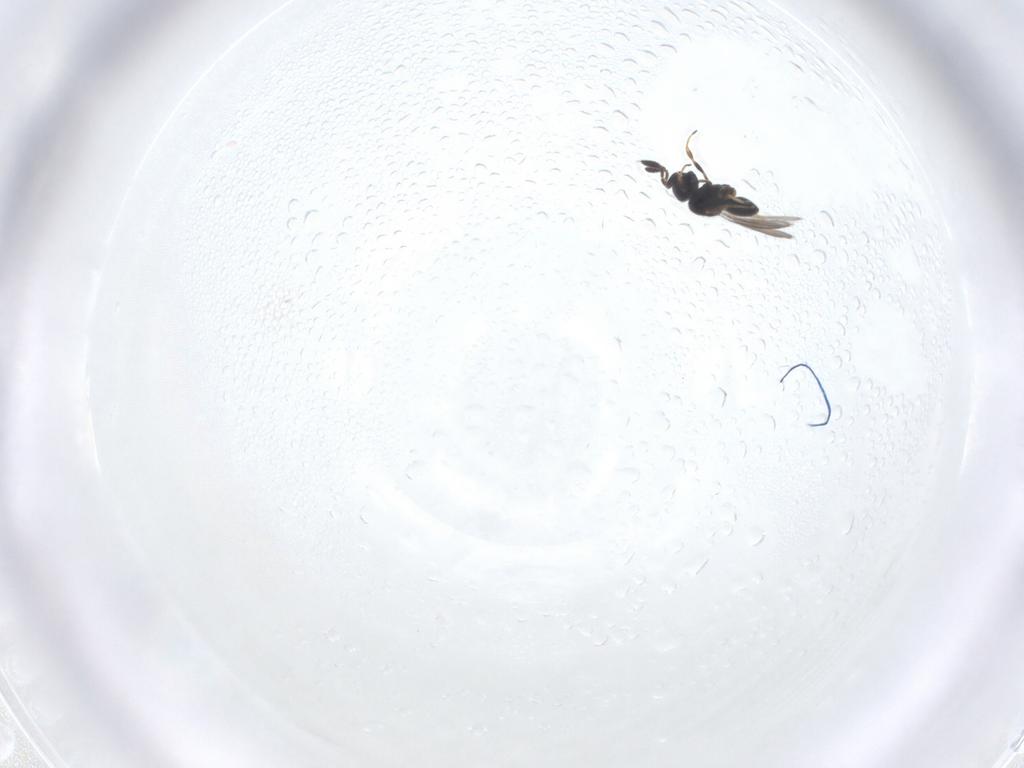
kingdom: Animalia
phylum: Arthropoda
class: Insecta
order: Hymenoptera
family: Scelionidae
